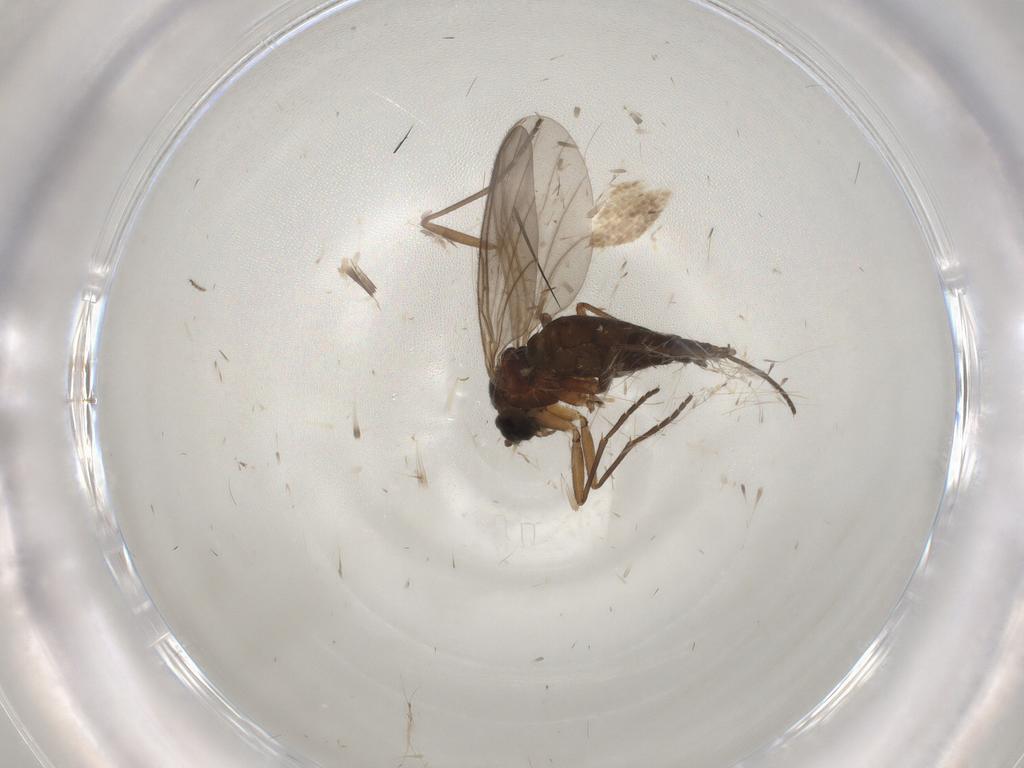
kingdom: Animalia
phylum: Arthropoda
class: Insecta
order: Diptera
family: Sciaridae
